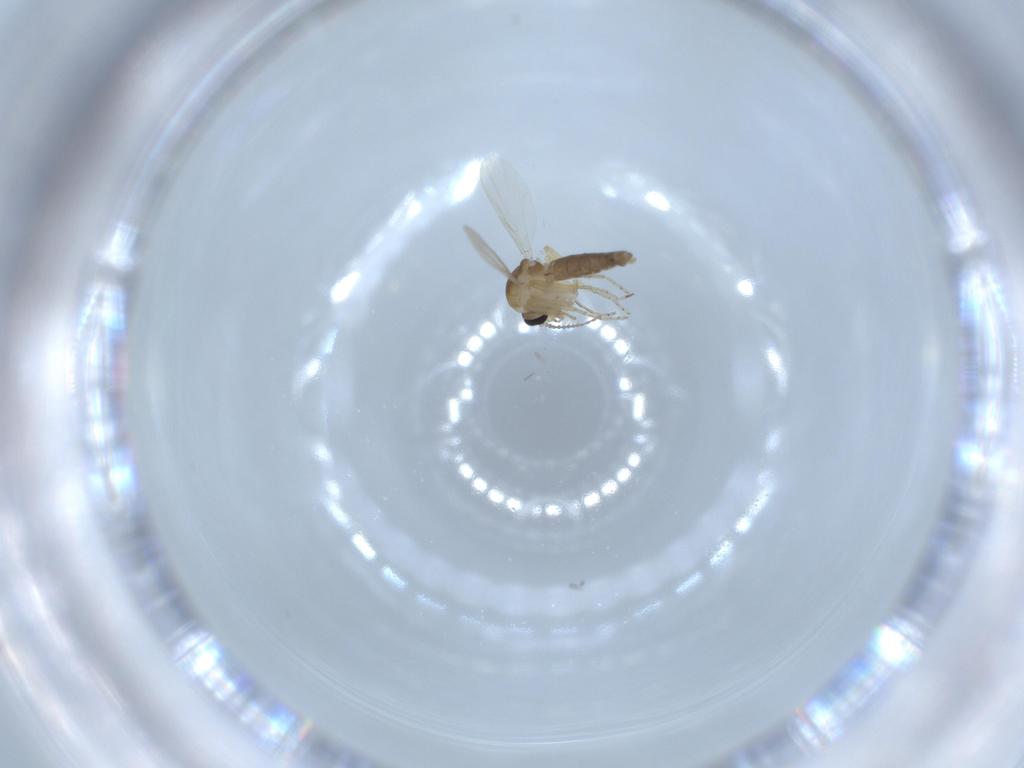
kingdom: Animalia
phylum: Arthropoda
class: Insecta
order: Diptera
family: Ceratopogonidae
